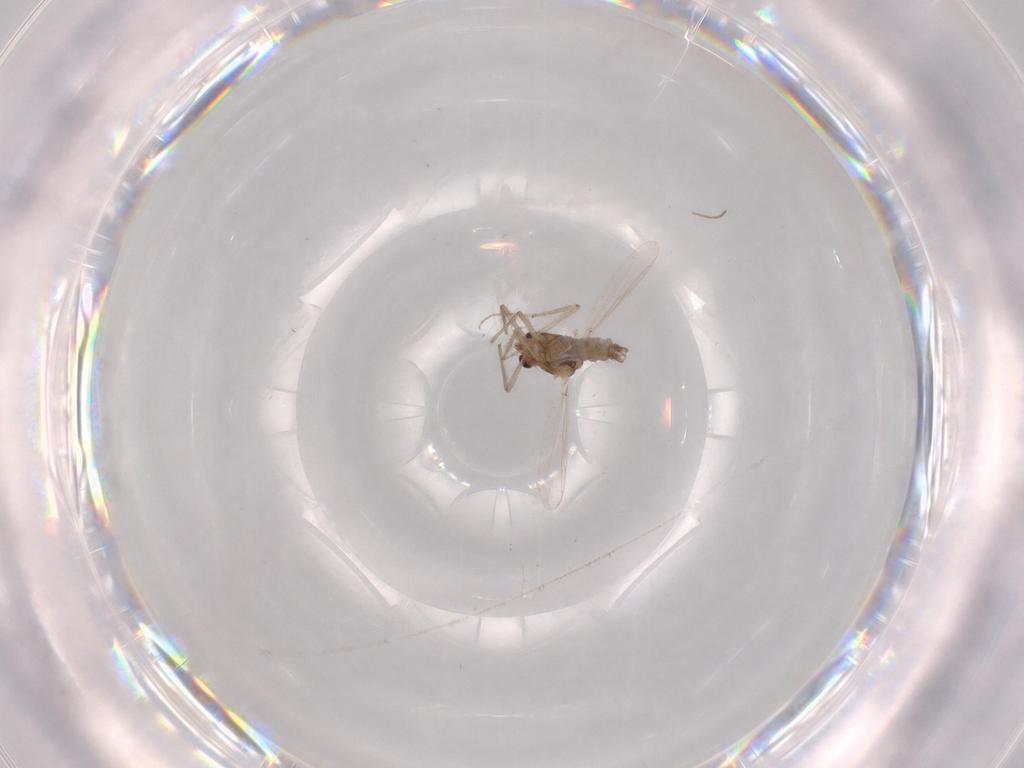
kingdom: Animalia
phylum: Arthropoda
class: Insecta
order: Diptera
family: Chironomidae
